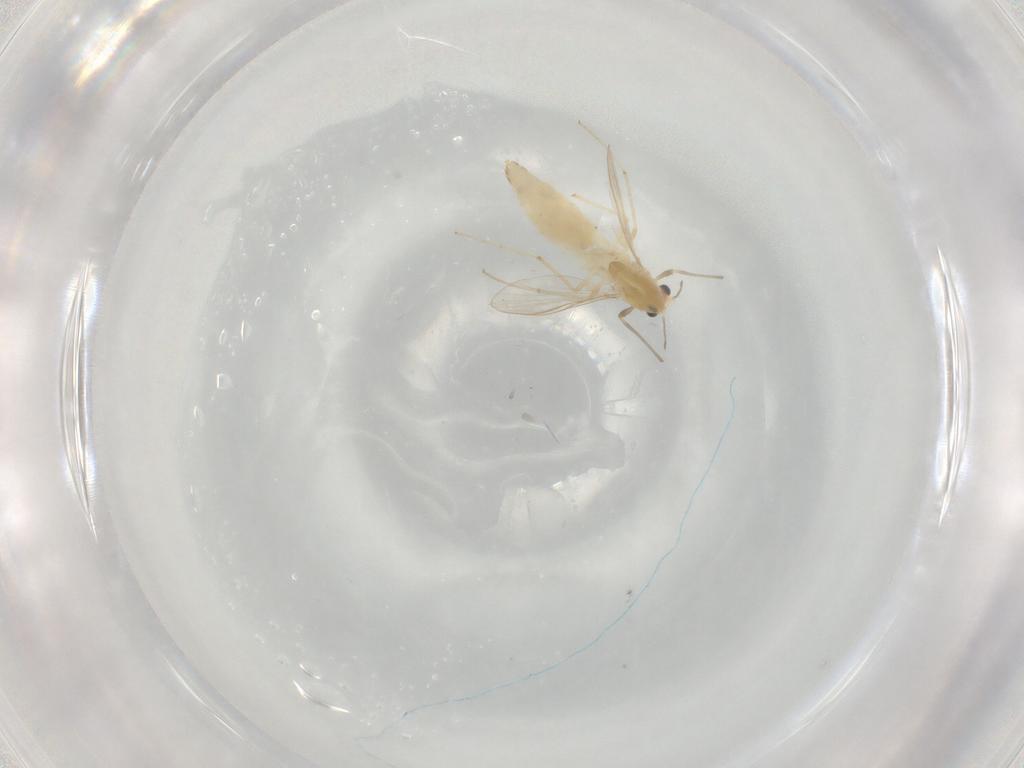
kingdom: Animalia
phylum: Arthropoda
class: Insecta
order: Diptera
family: Chironomidae
